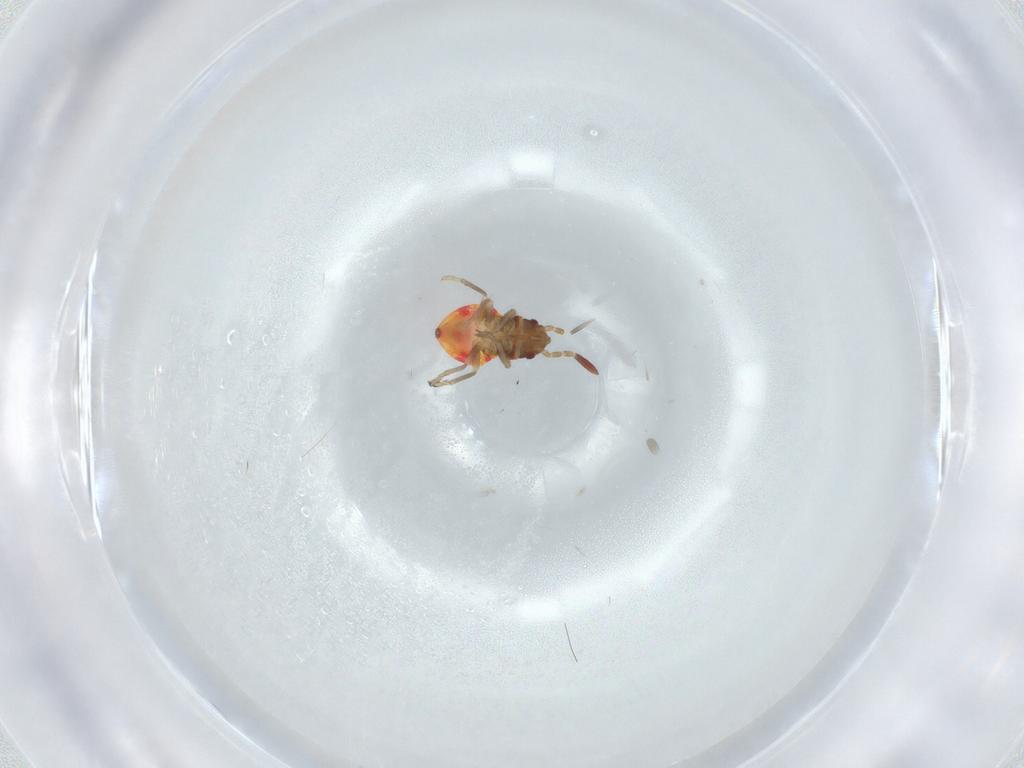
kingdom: Animalia
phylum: Arthropoda
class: Insecta
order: Hemiptera
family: Rhyparochromidae
